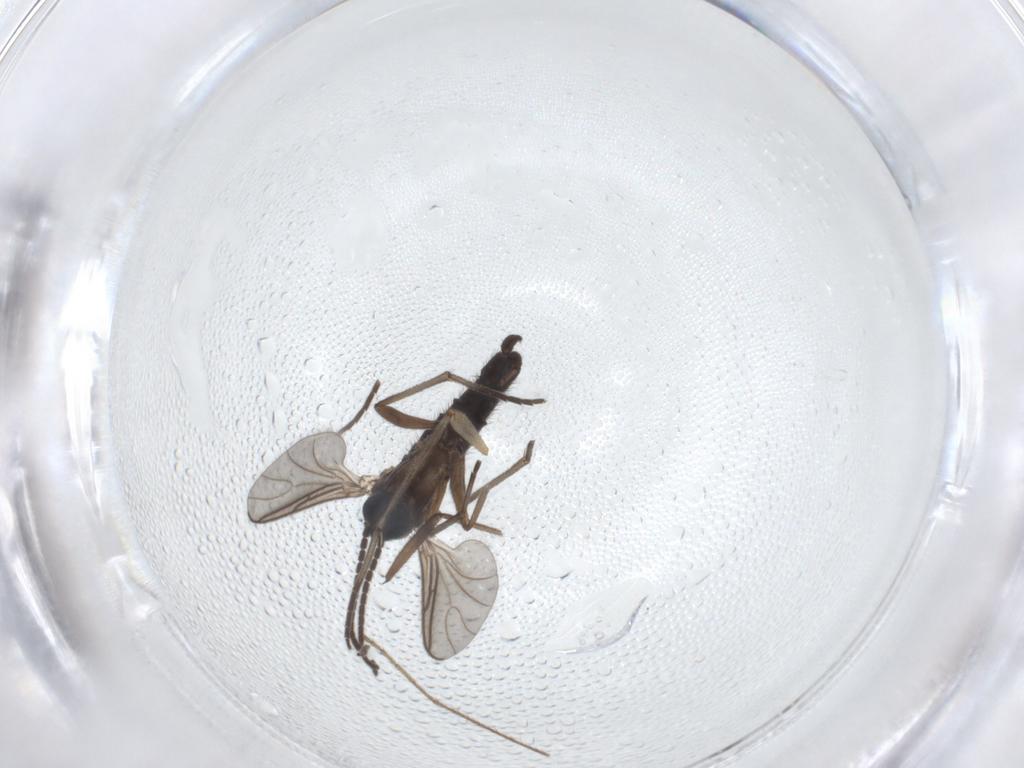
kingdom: Animalia
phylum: Arthropoda
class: Insecta
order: Diptera
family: Sciaridae
